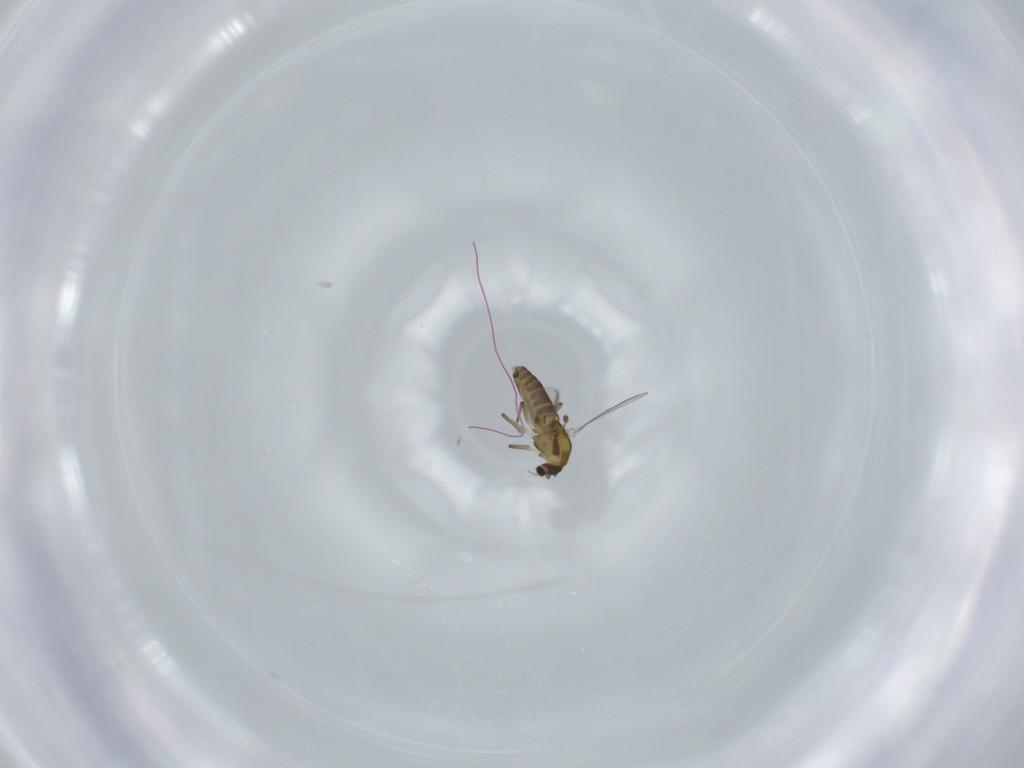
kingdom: Animalia
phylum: Arthropoda
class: Insecta
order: Diptera
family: Chironomidae
